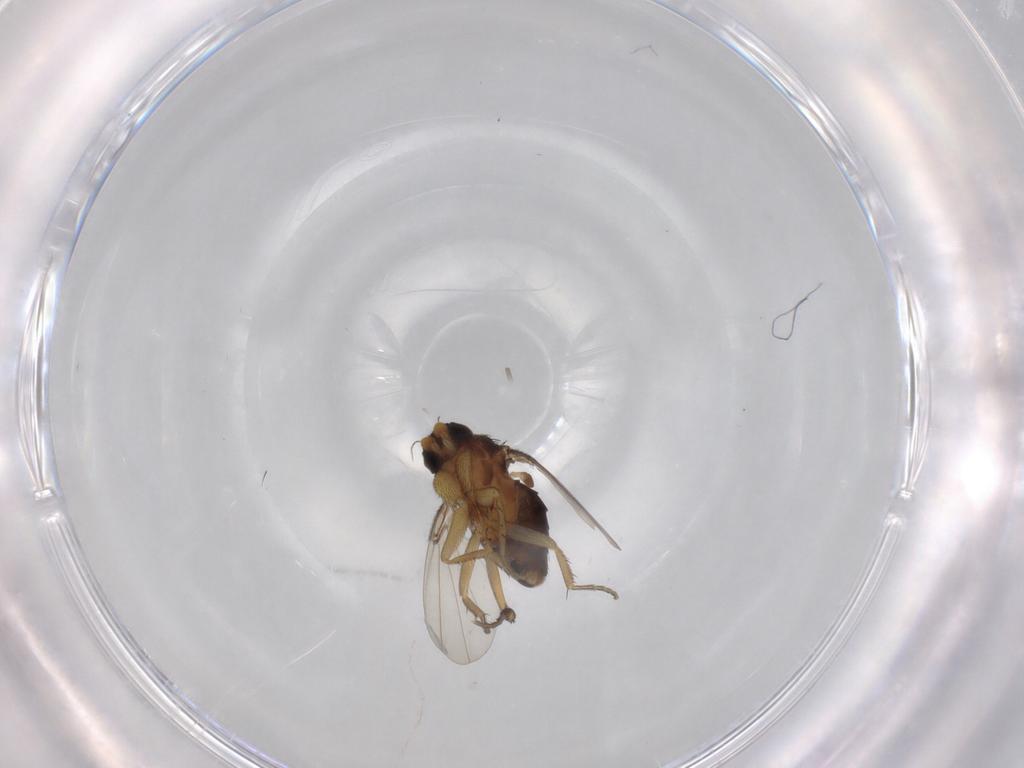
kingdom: Animalia
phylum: Arthropoda
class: Insecta
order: Diptera
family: Phoridae
